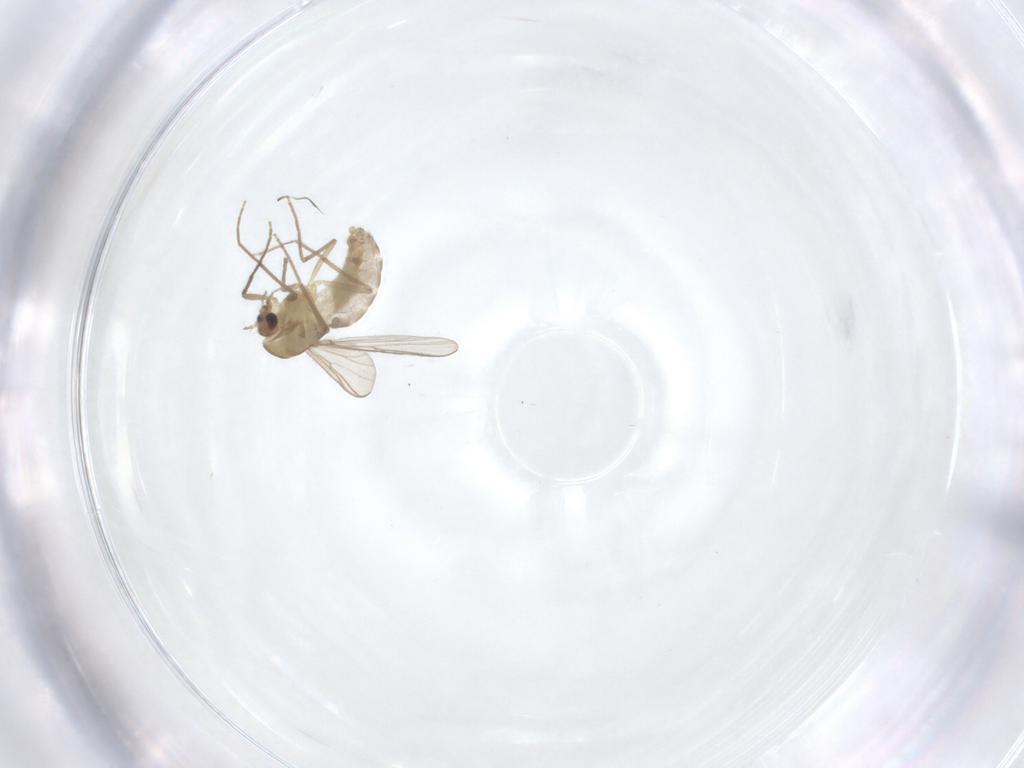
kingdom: Animalia
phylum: Arthropoda
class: Insecta
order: Diptera
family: Chironomidae
